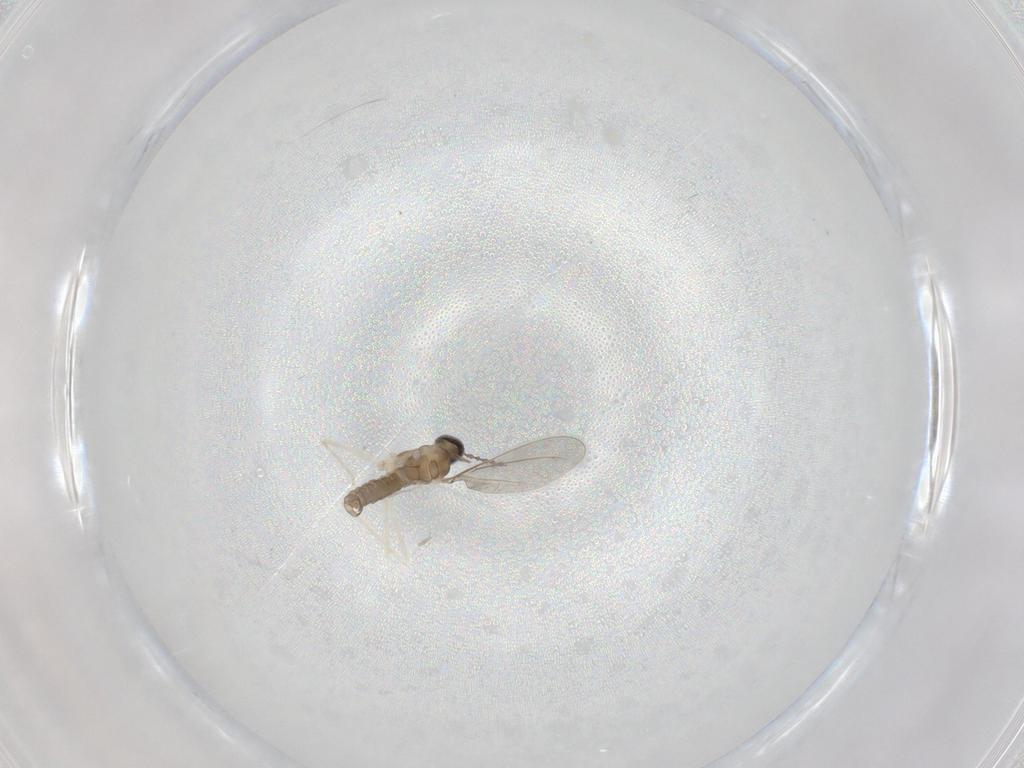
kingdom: Animalia
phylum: Arthropoda
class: Insecta
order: Diptera
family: Cecidomyiidae
